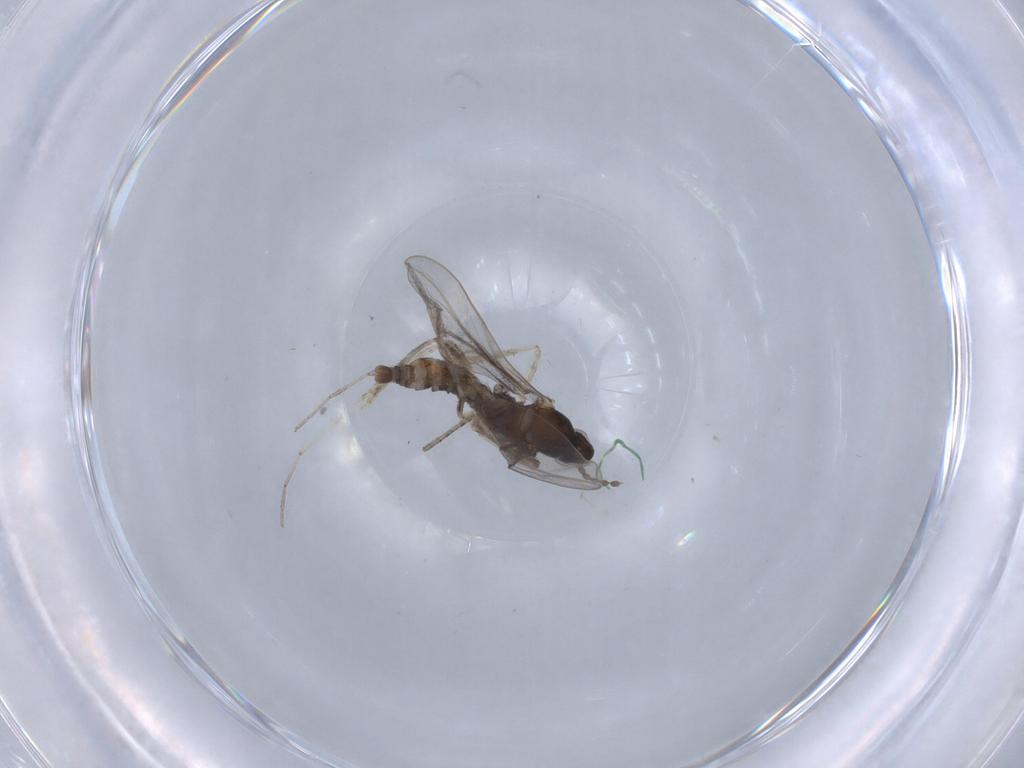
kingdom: Animalia
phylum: Arthropoda
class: Insecta
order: Diptera
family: Cecidomyiidae
